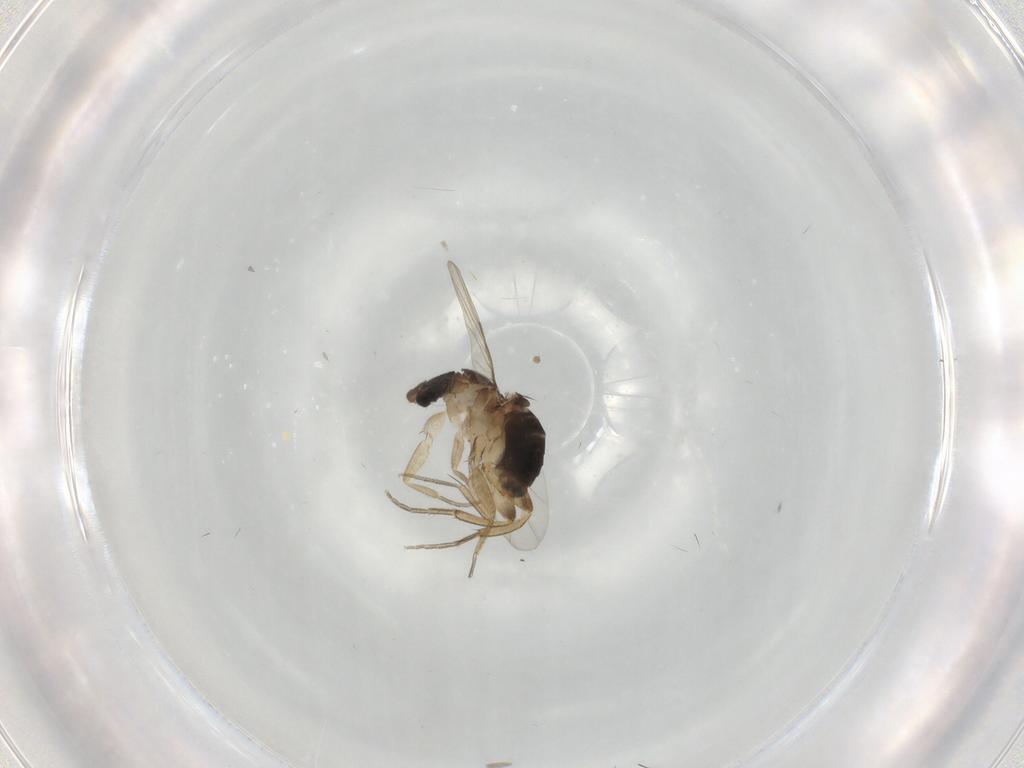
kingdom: Animalia
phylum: Arthropoda
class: Insecta
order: Diptera
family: Phoridae
